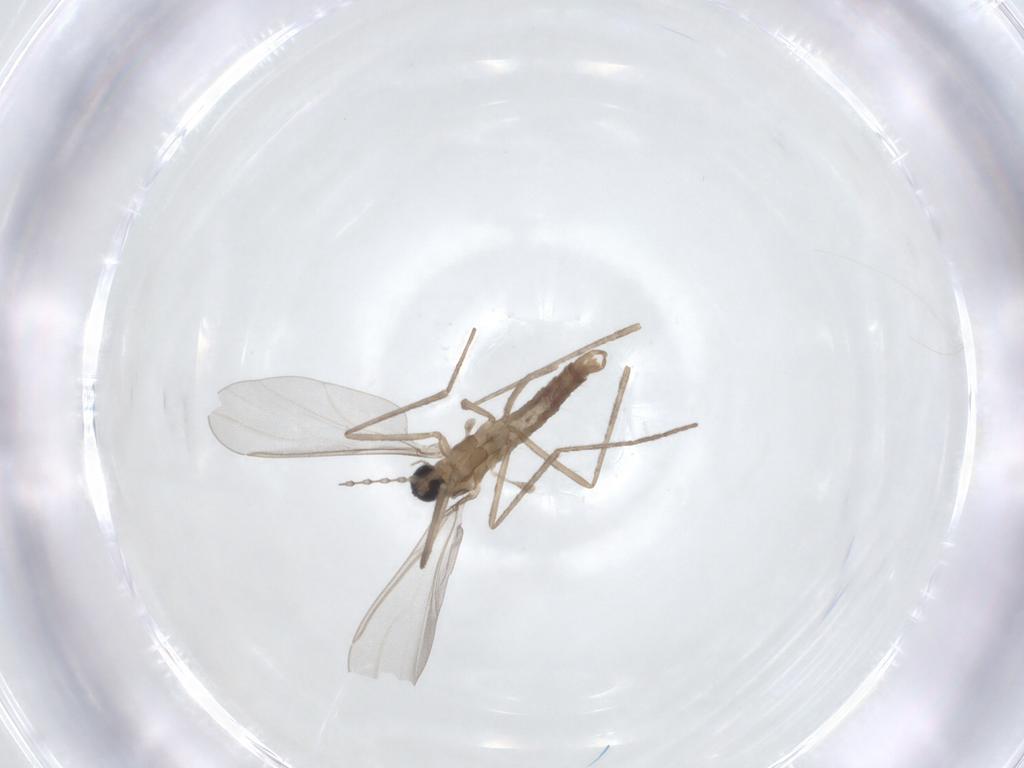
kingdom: Animalia
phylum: Arthropoda
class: Insecta
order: Diptera
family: Cecidomyiidae
